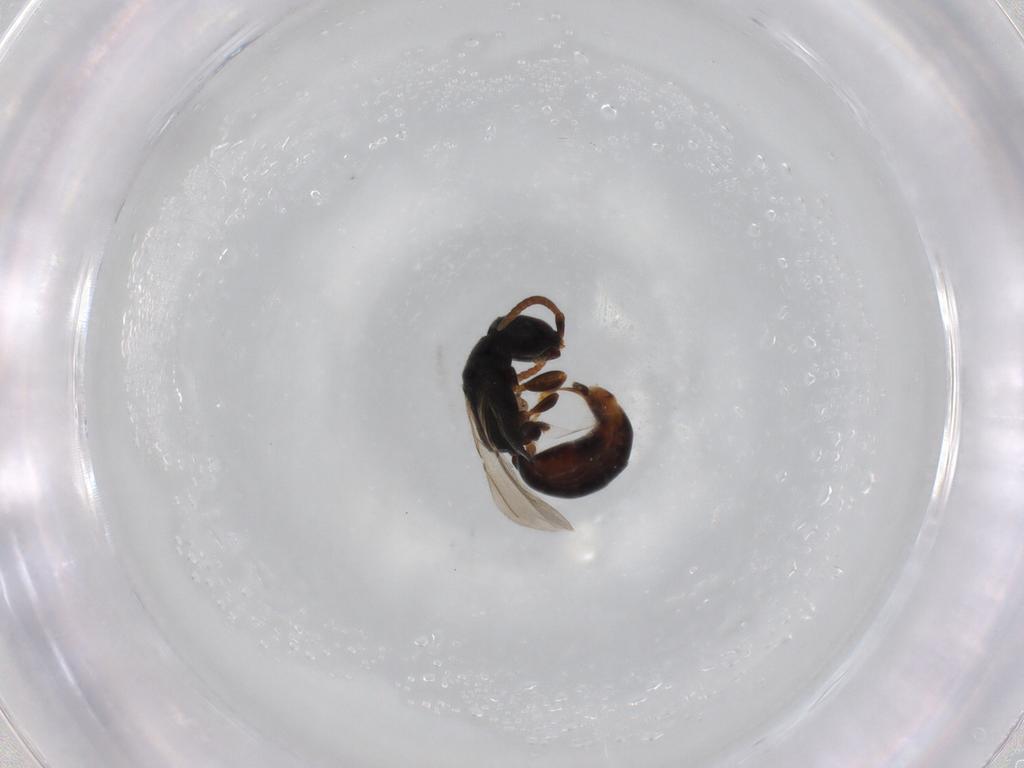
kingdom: Animalia
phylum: Arthropoda
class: Insecta
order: Hymenoptera
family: Bethylidae
